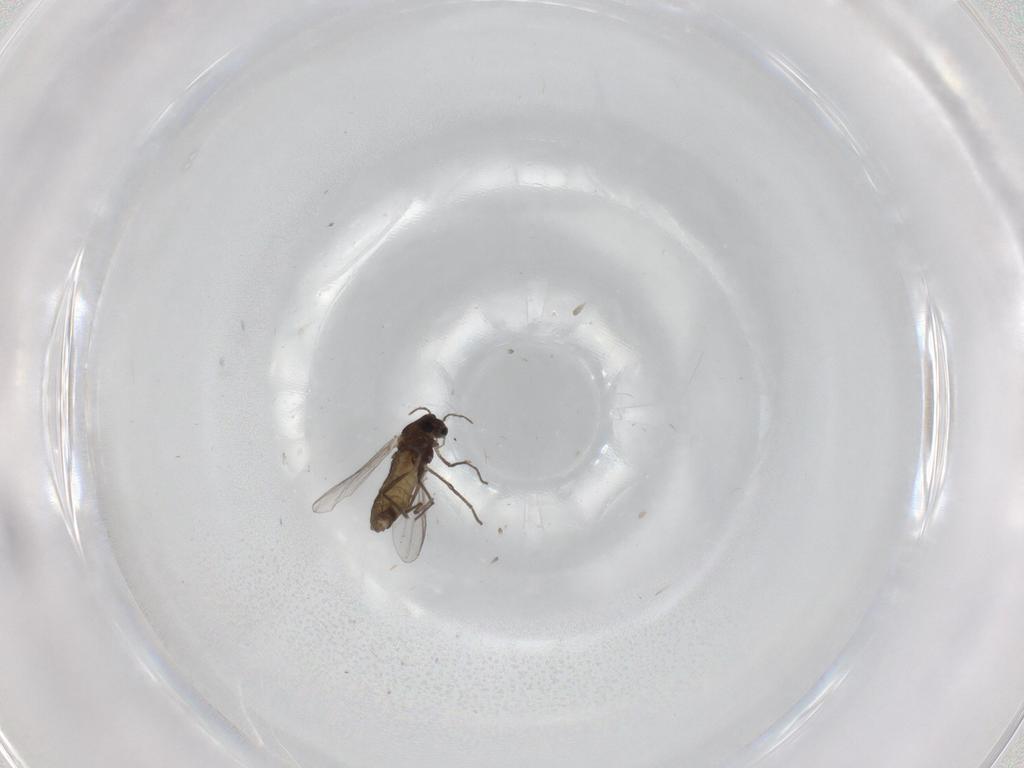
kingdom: Animalia
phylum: Arthropoda
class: Insecta
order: Diptera
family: Chironomidae
